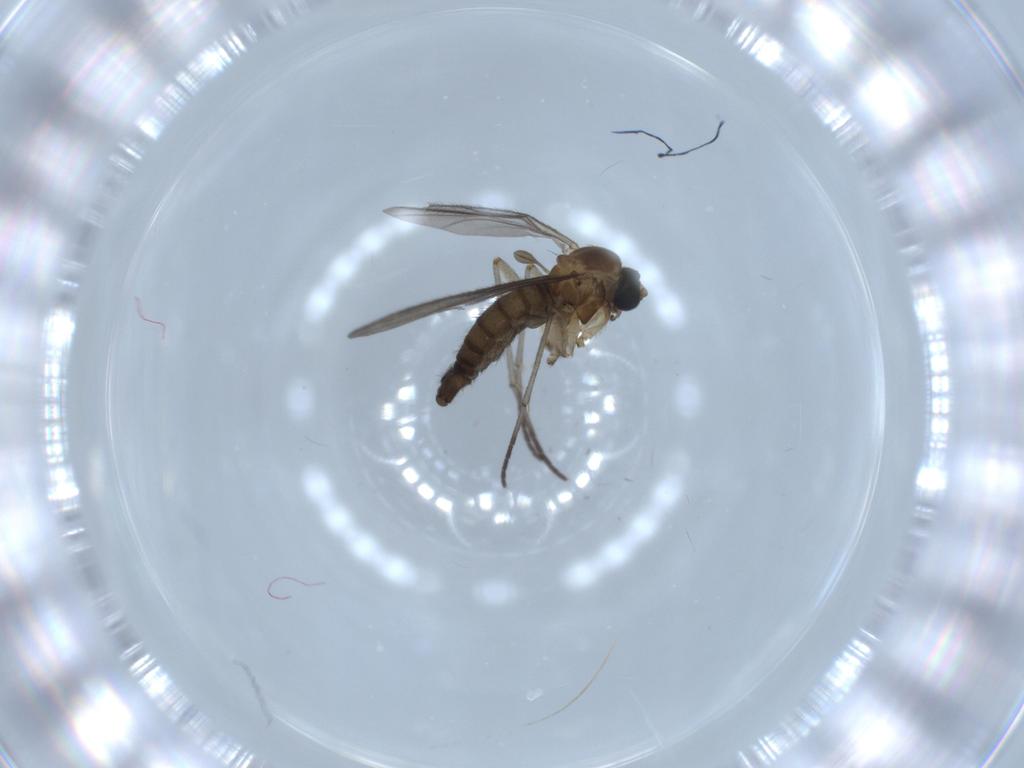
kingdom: Animalia
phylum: Arthropoda
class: Insecta
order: Diptera
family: Sciaridae
